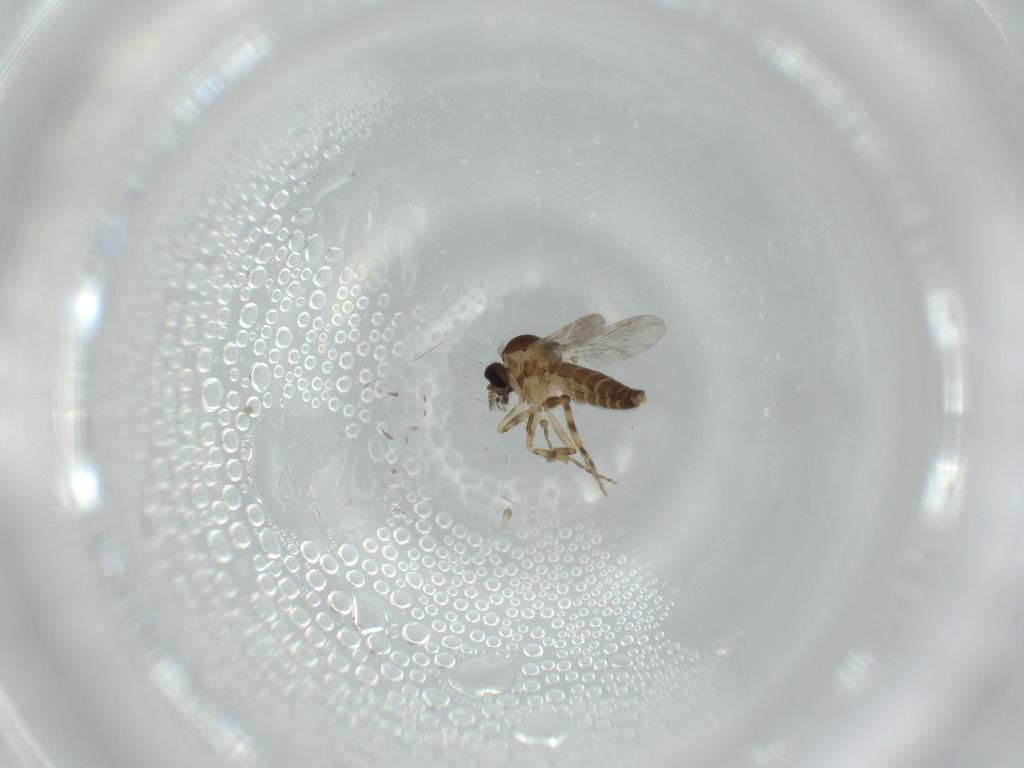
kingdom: Animalia
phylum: Arthropoda
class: Insecta
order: Diptera
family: Ceratopogonidae
